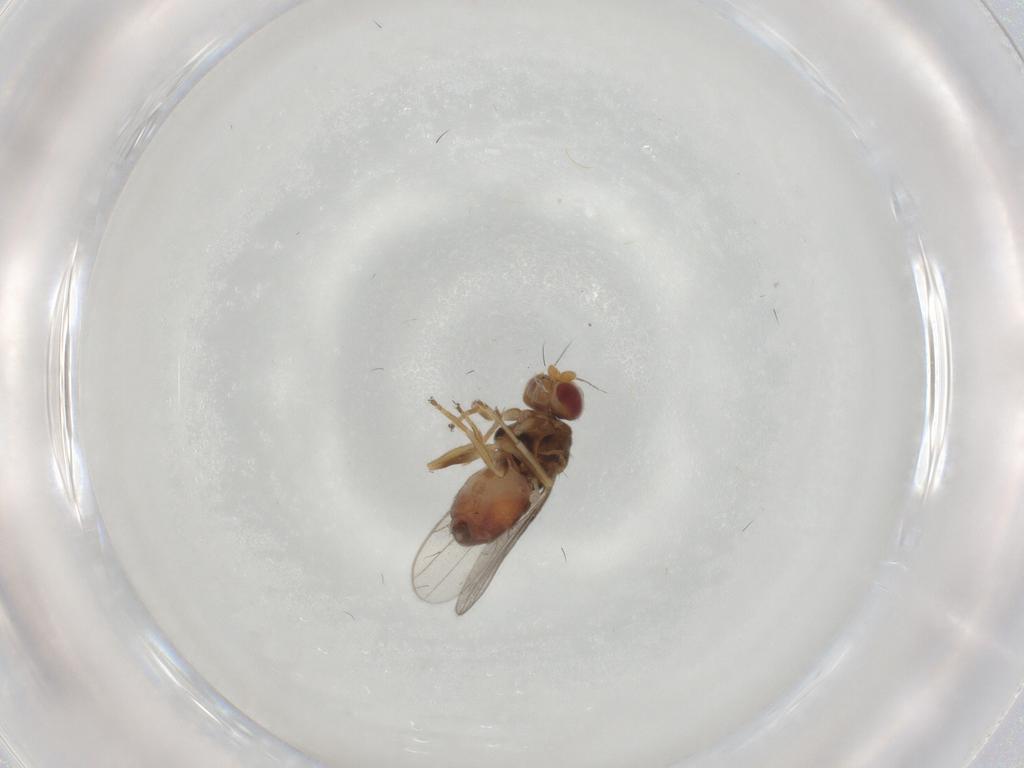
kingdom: Animalia
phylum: Arthropoda
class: Insecta
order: Diptera
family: Chloropidae
